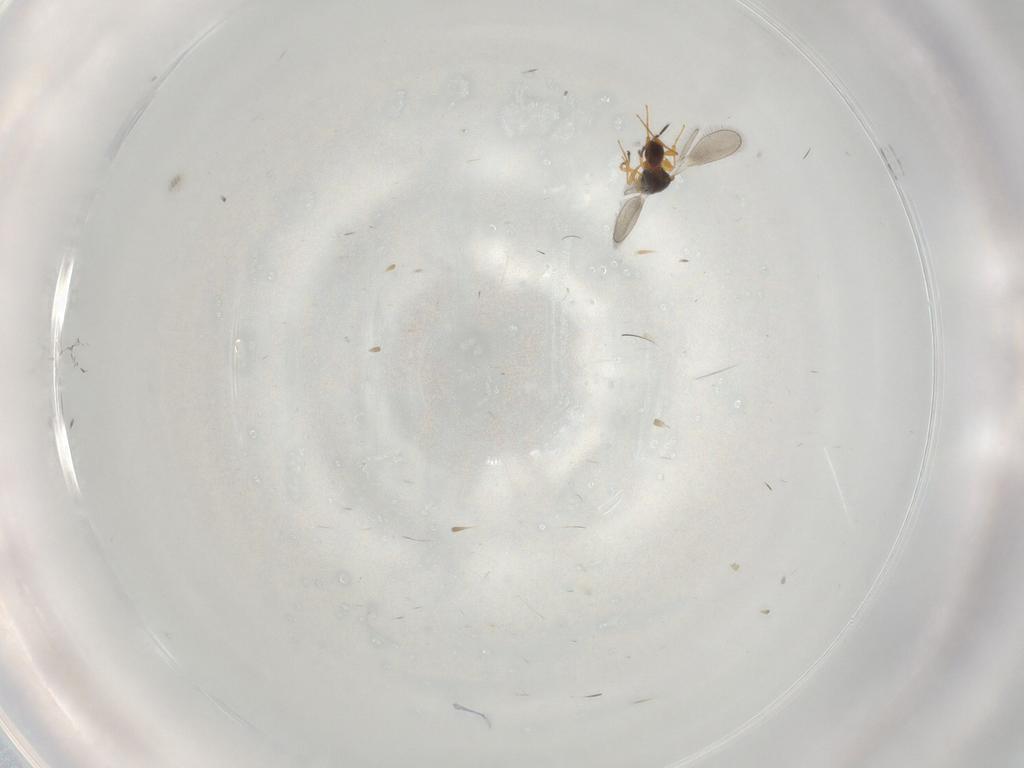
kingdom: Animalia
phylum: Arthropoda
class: Insecta
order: Hymenoptera
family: Platygastridae
